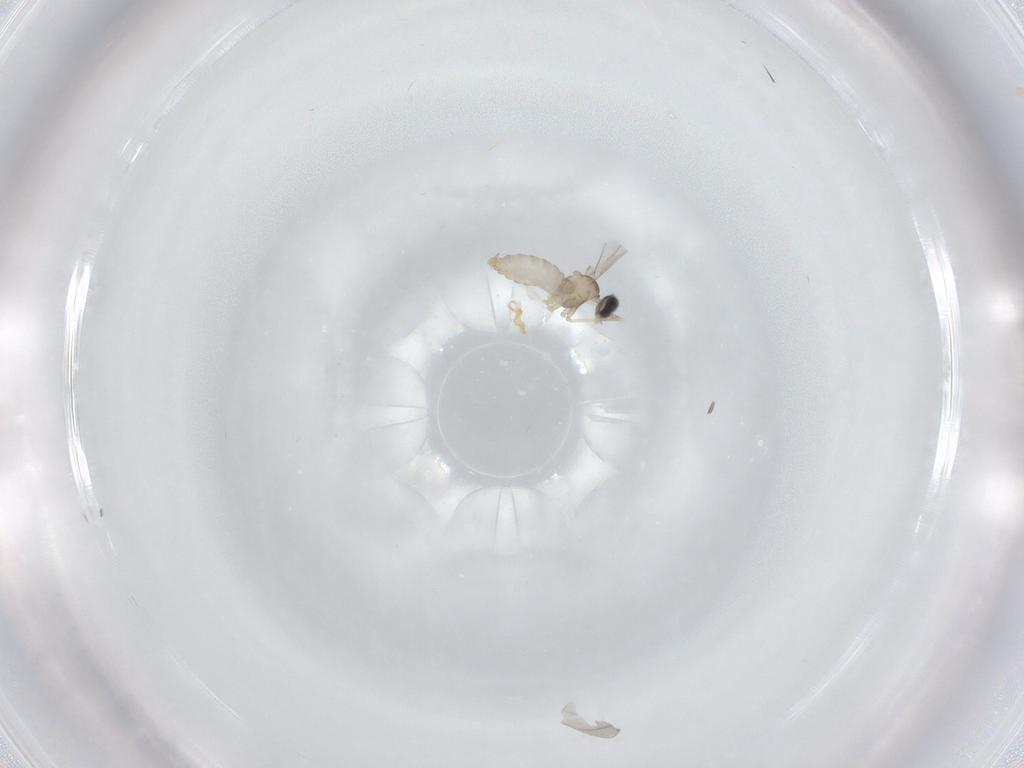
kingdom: Animalia
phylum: Arthropoda
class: Insecta
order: Diptera
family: Cecidomyiidae
